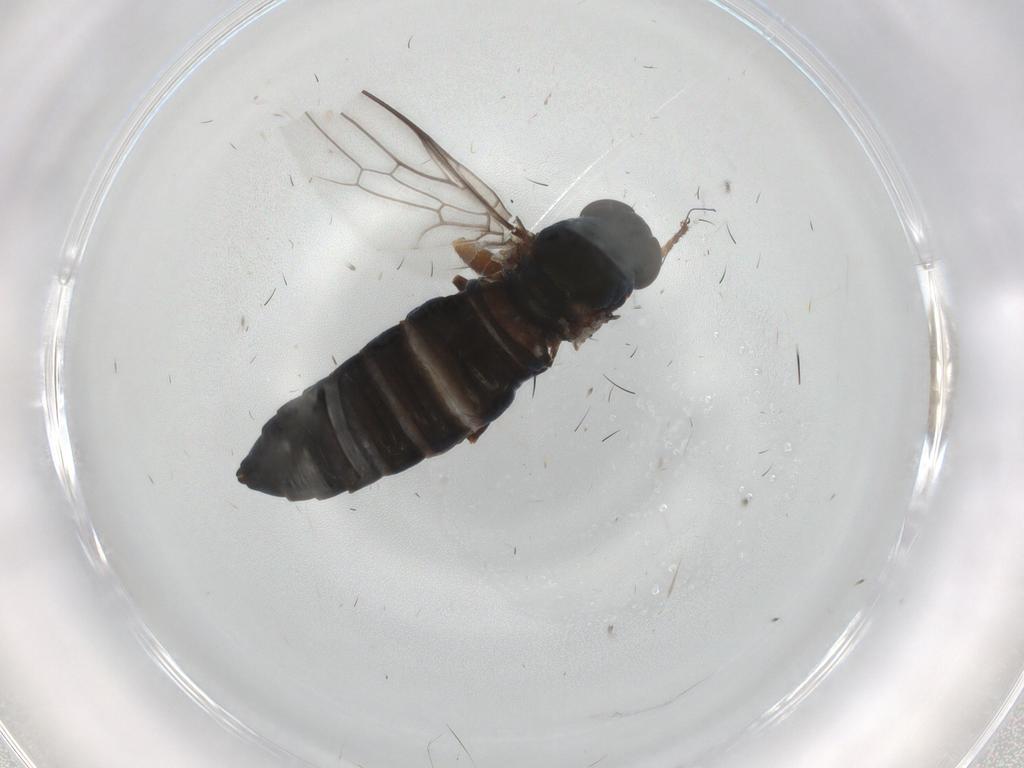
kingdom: Animalia
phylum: Arthropoda
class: Insecta
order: Diptera
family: Scenopinidae
